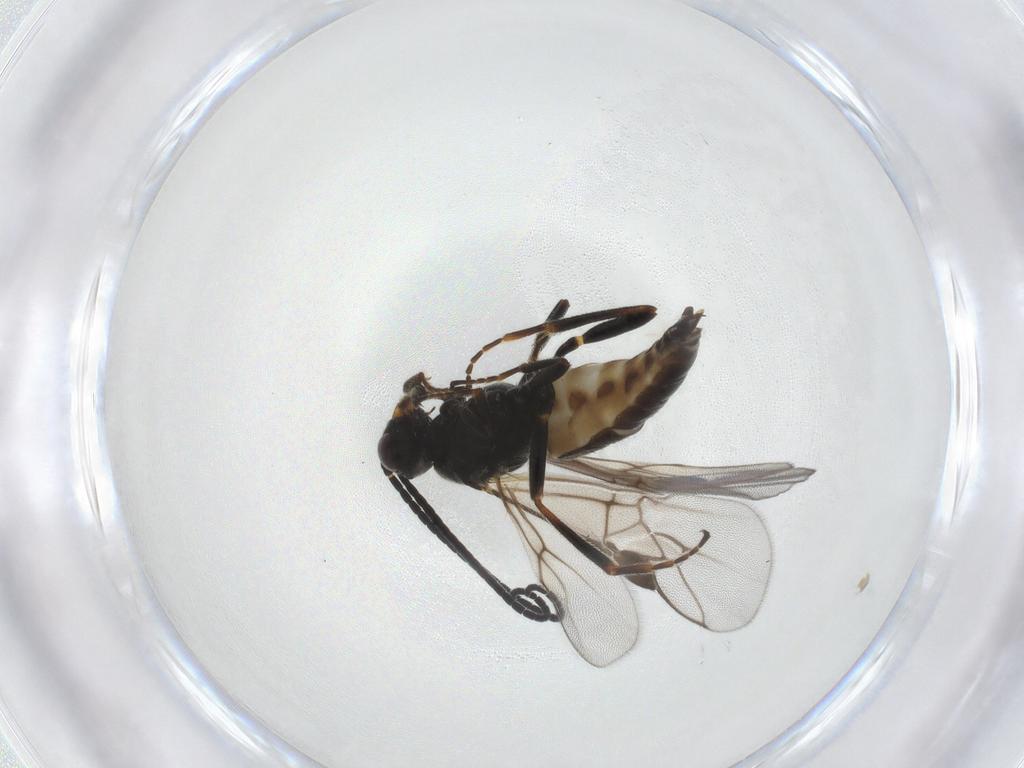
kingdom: Animalia
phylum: Arthropoda
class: Insecta
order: Hymenoptera
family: Braconidae
